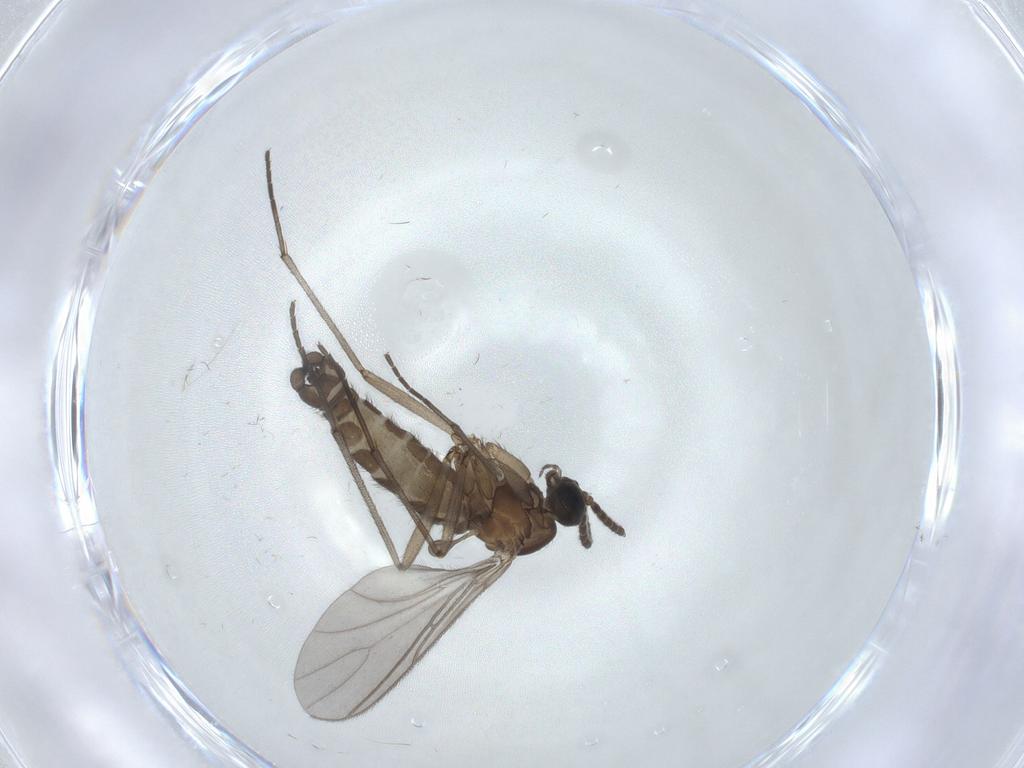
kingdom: Animalia
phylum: Arthropoda
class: Insecta
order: Diptera
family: Sciaridae
